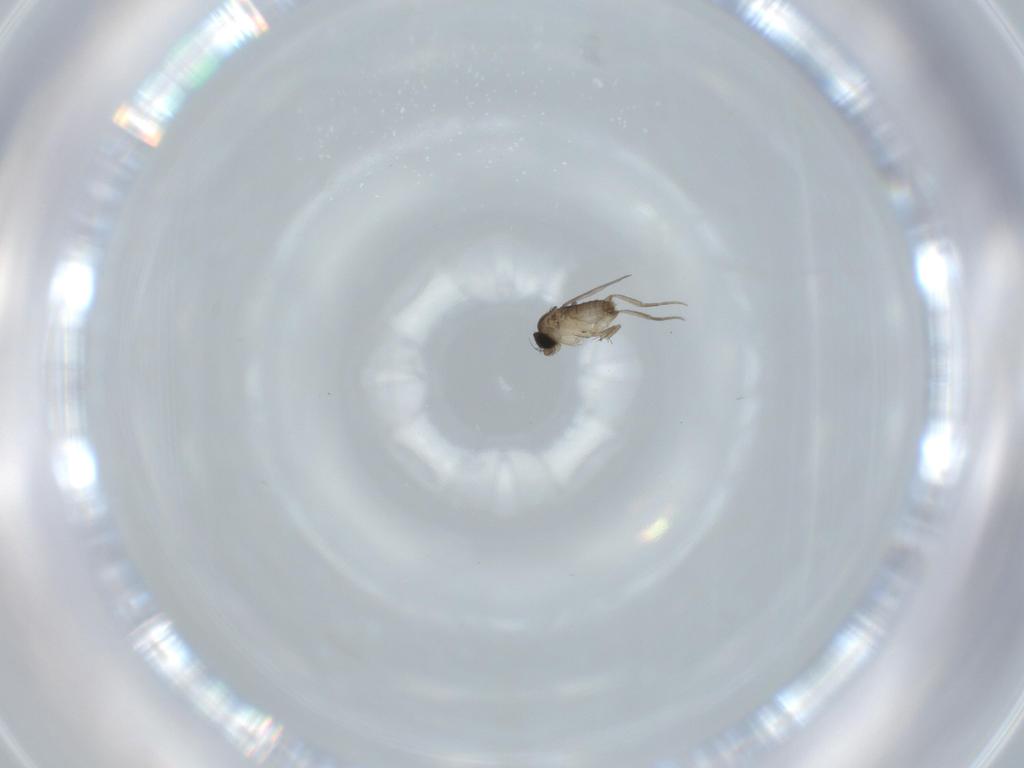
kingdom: Animalia
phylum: Arthropoda
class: Insecta
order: Diptera
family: Phoridae
